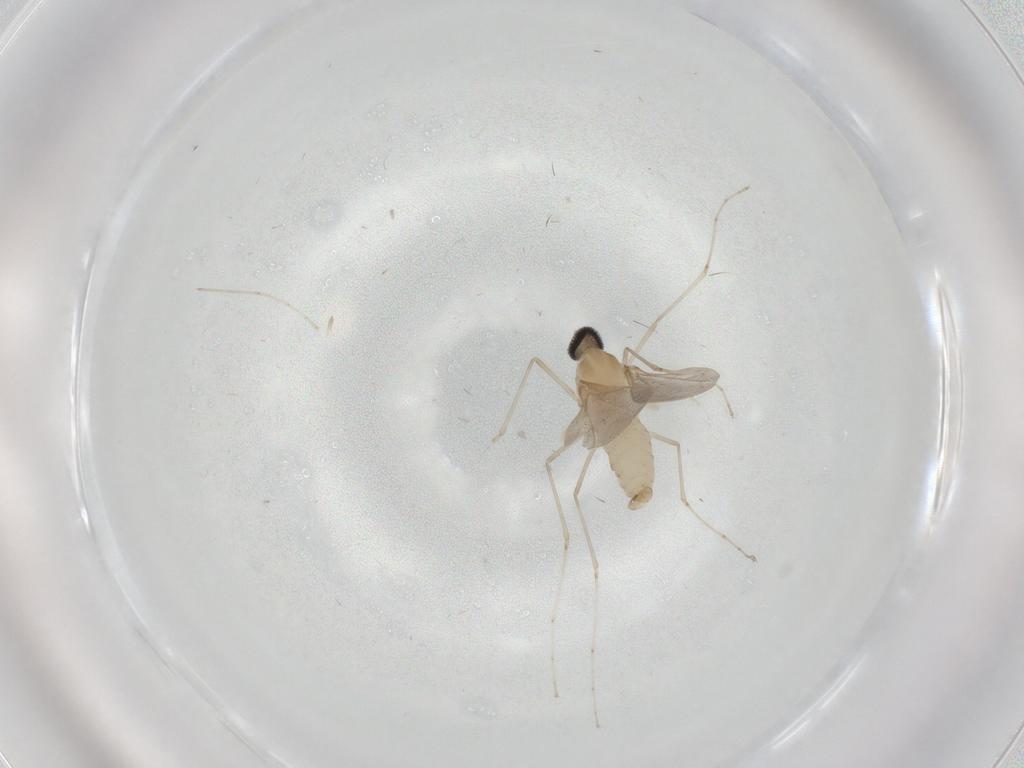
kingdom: Animalia
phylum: Arthropoda
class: Insecta
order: Diptera
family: Cecidomyiidae
